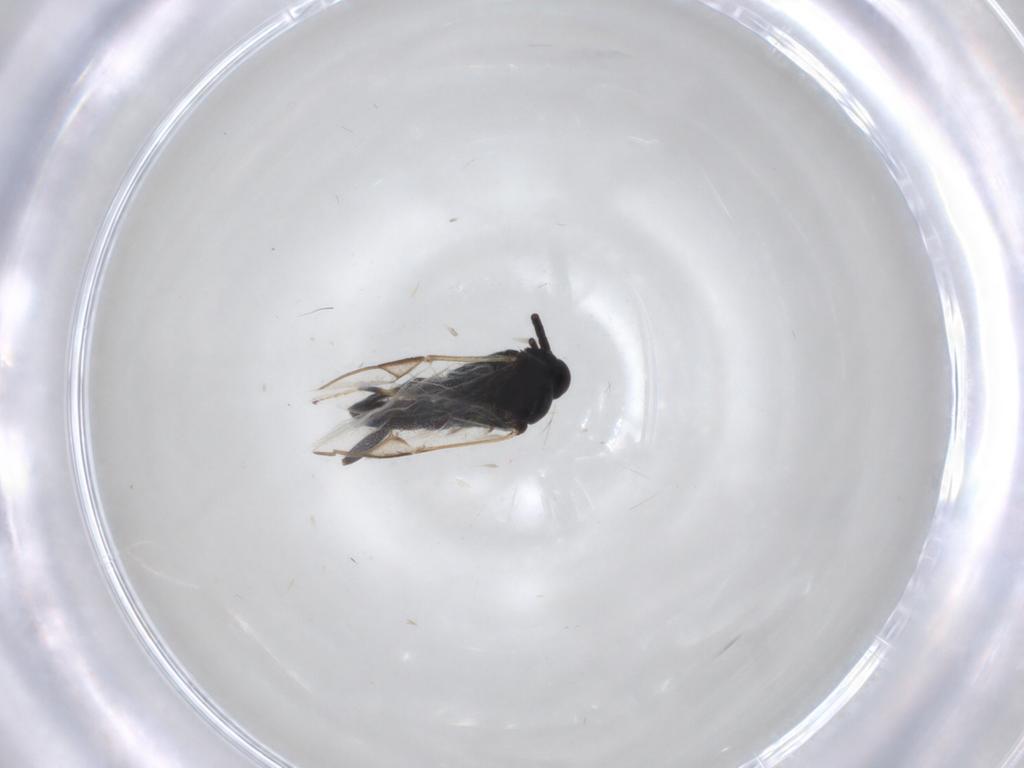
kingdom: Animalia
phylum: Arthropoda
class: Insecta
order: Hymenoptera
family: Braconidae
